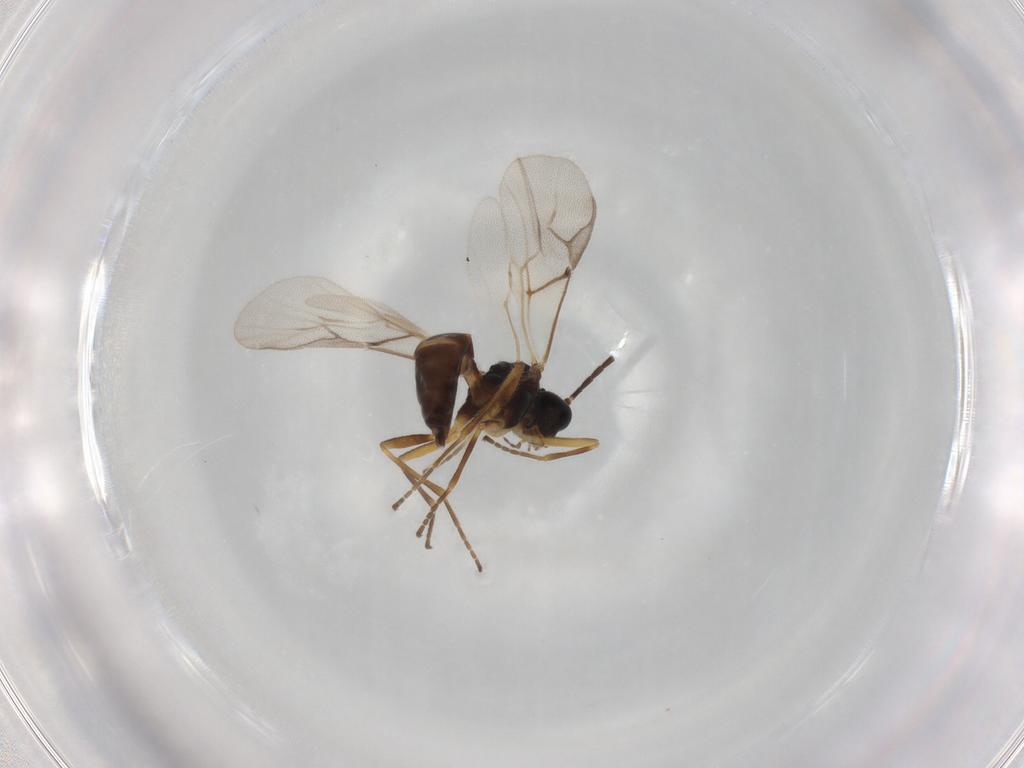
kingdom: Animalia
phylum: Arthropoda
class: Insecta
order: Hymenoptera
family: Braconidae
